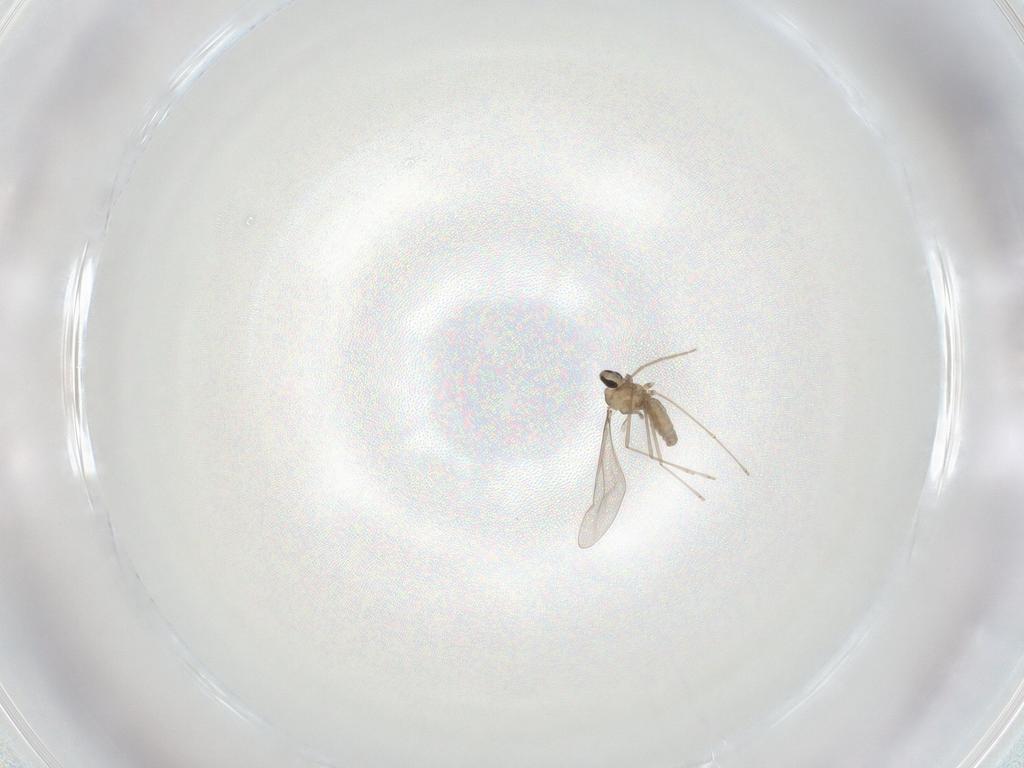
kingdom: Animalia
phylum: Arthropoda
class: Insecta
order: Diptera
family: Cecidomyiidae
